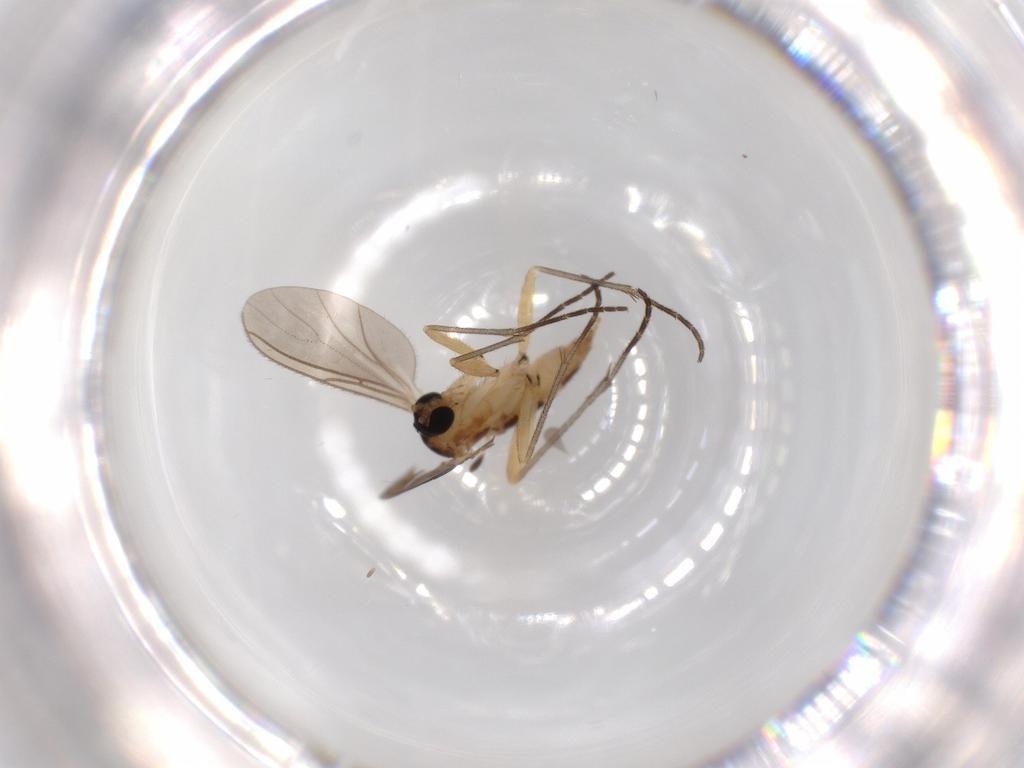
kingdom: Animalia
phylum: Arthropoda
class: Insecta
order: Diptera
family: Sciaridae
